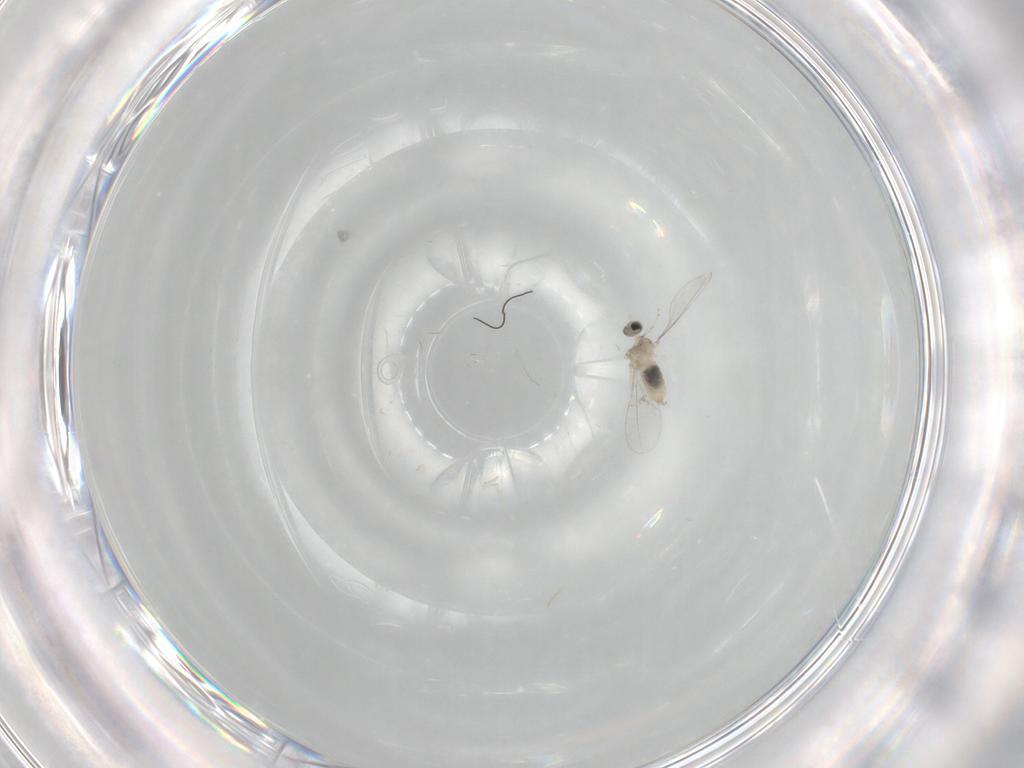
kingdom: Animalia
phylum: Arthropoda
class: Insecta
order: Diptera
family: Cecidomyiidae
